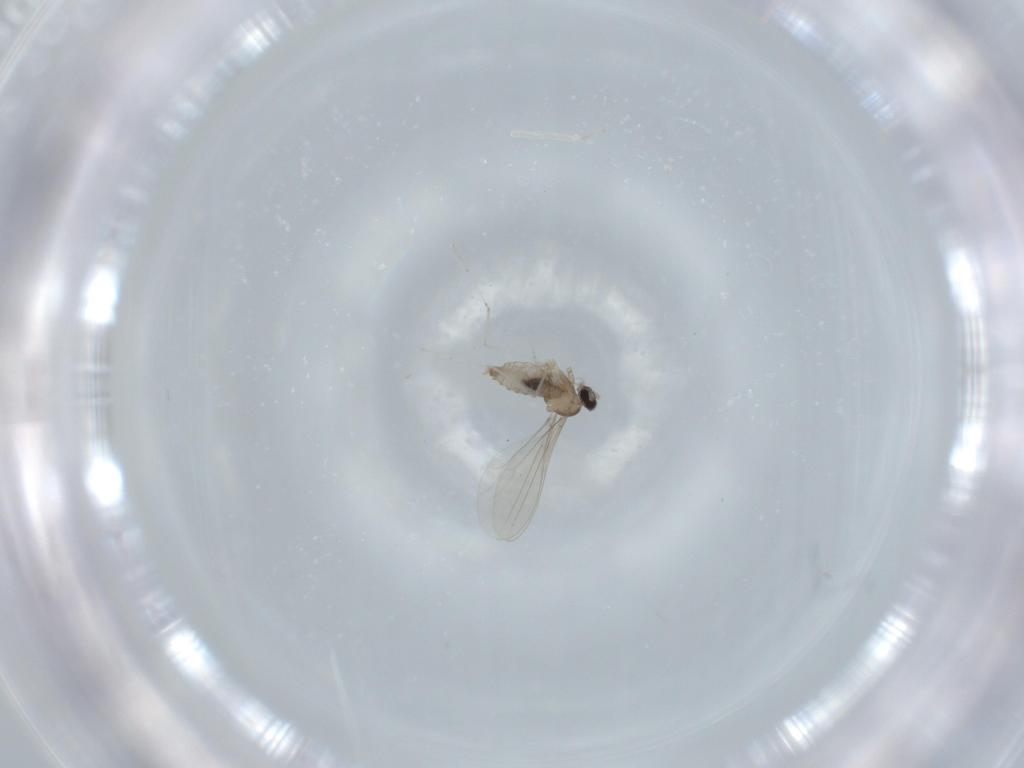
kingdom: Animalia
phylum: Arthropoda
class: Insecta
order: Diptera
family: Cecidomyiidae
